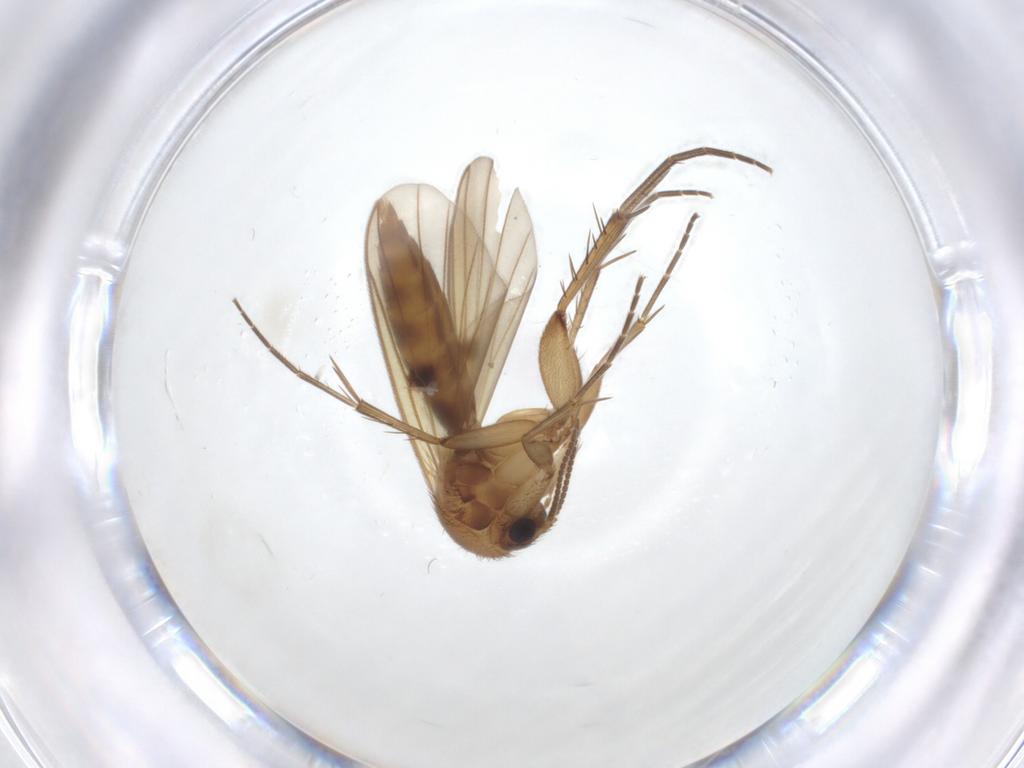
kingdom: Animalia
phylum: Arthropoda
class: Insecta
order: Diptera
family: Mycetophilidae
